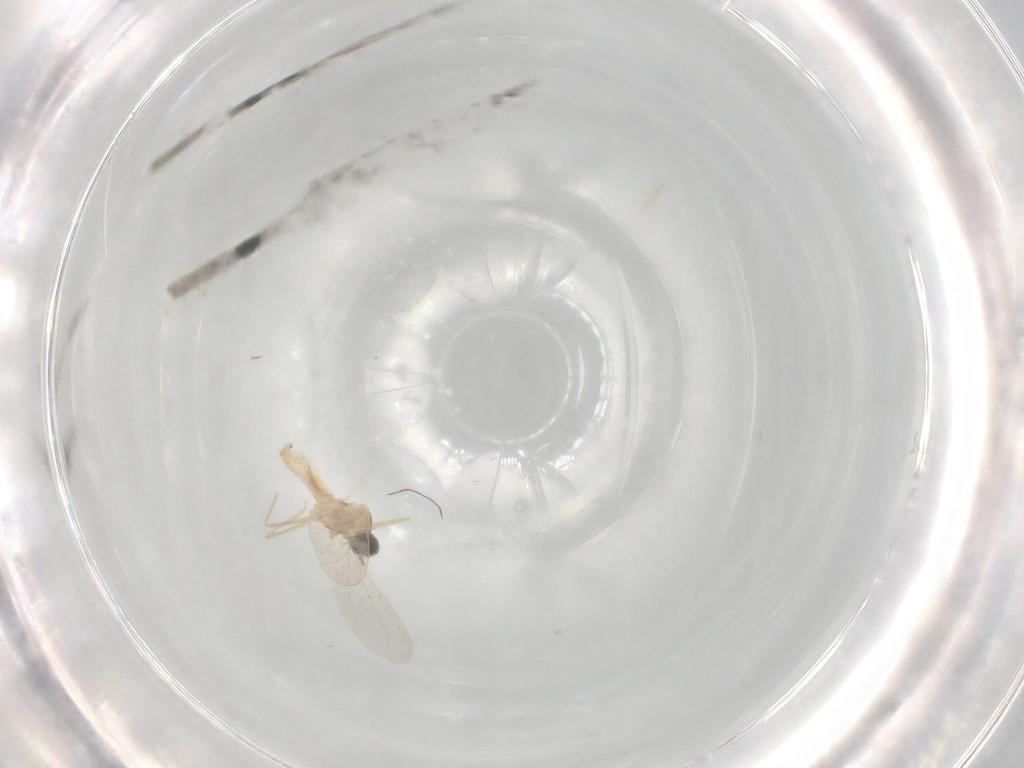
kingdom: Animalia
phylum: Arthropoda
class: Insecta
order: Diptera
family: Cecidomyiidae
